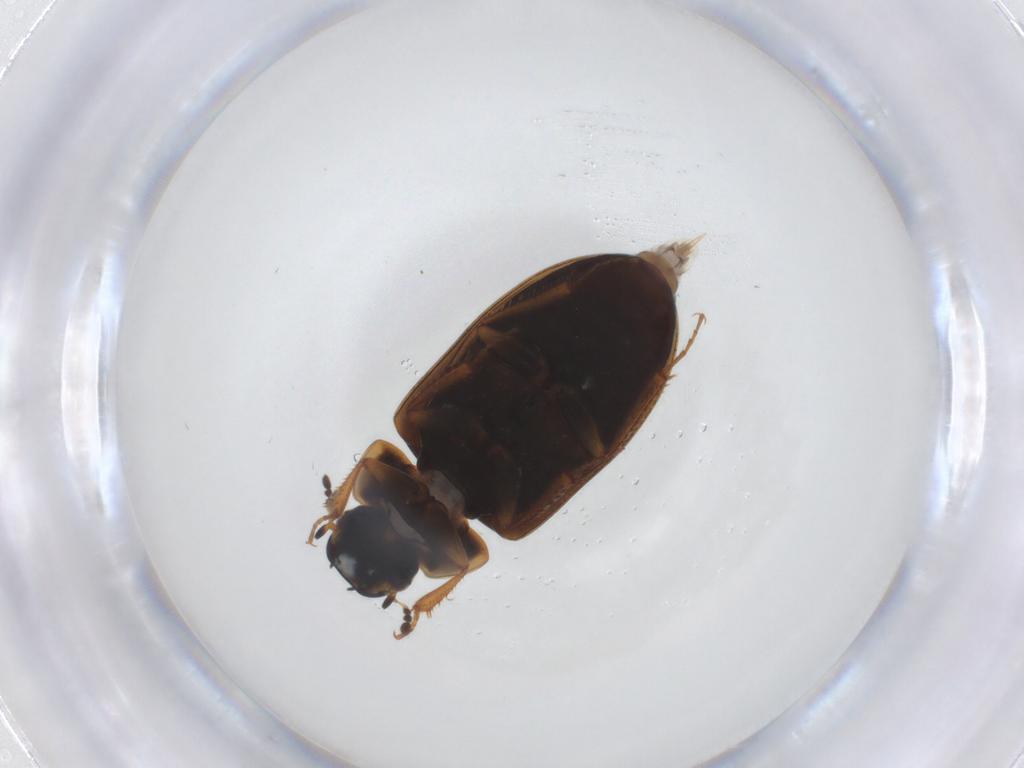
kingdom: Animalia
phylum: Arthropoda
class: Insecta
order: Coleoptera
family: Hydrophilidae
